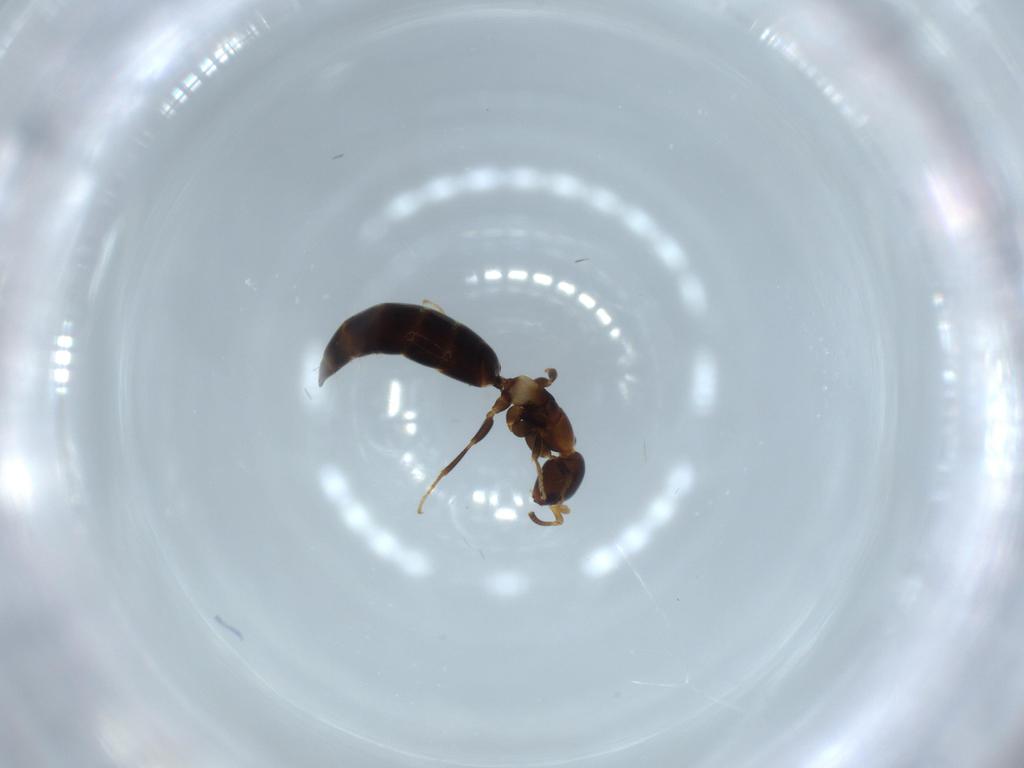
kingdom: Animalia
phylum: Arthropoda
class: Insecta
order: Hymenoptera
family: Bethylidae
